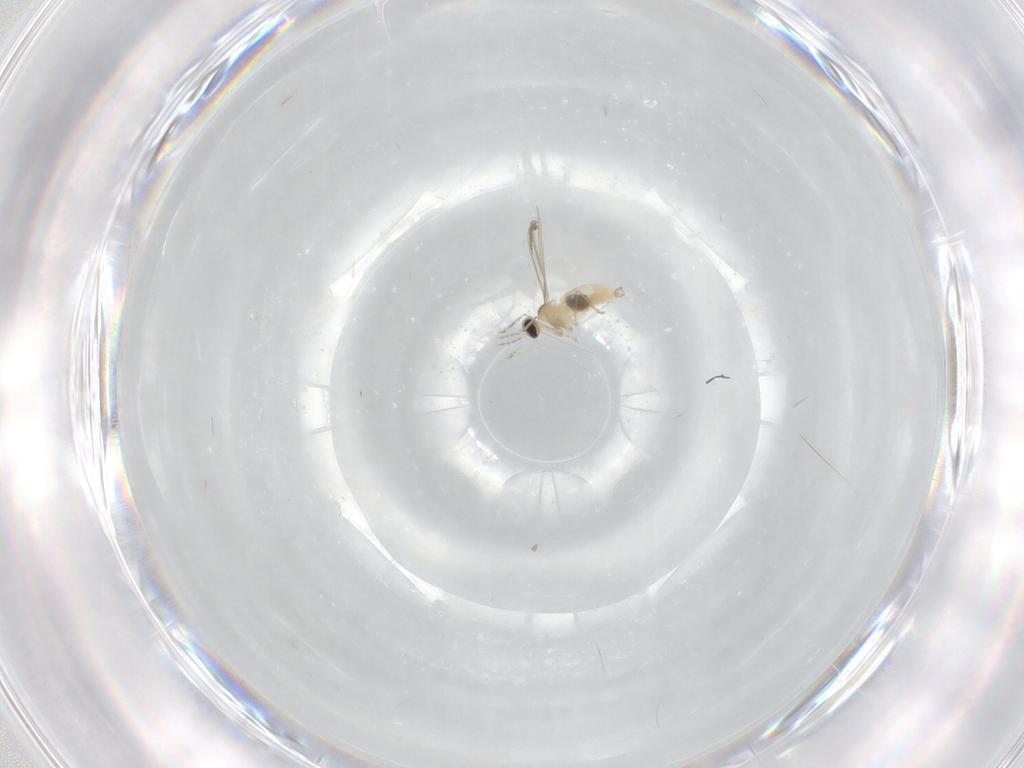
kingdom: Animalia
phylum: Arthropoda
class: Insecta
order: Diptera
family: Cecidomyiidae
